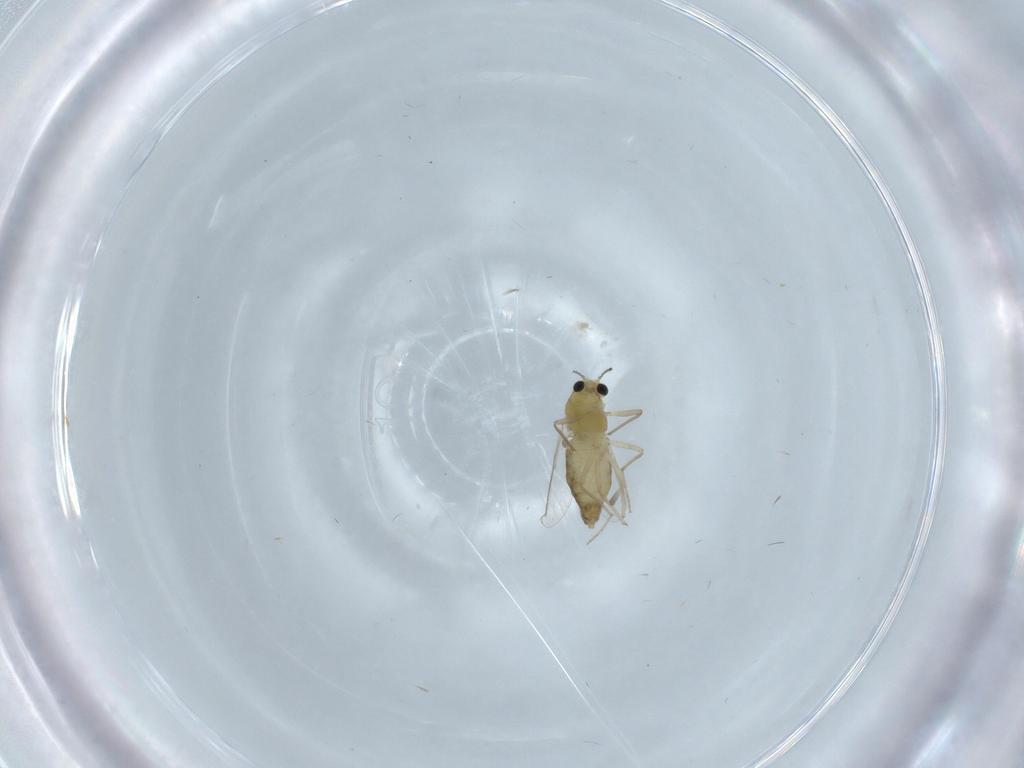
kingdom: Animalia
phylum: Arthropoda
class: Insecta
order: Diptera
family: Chironomidae
